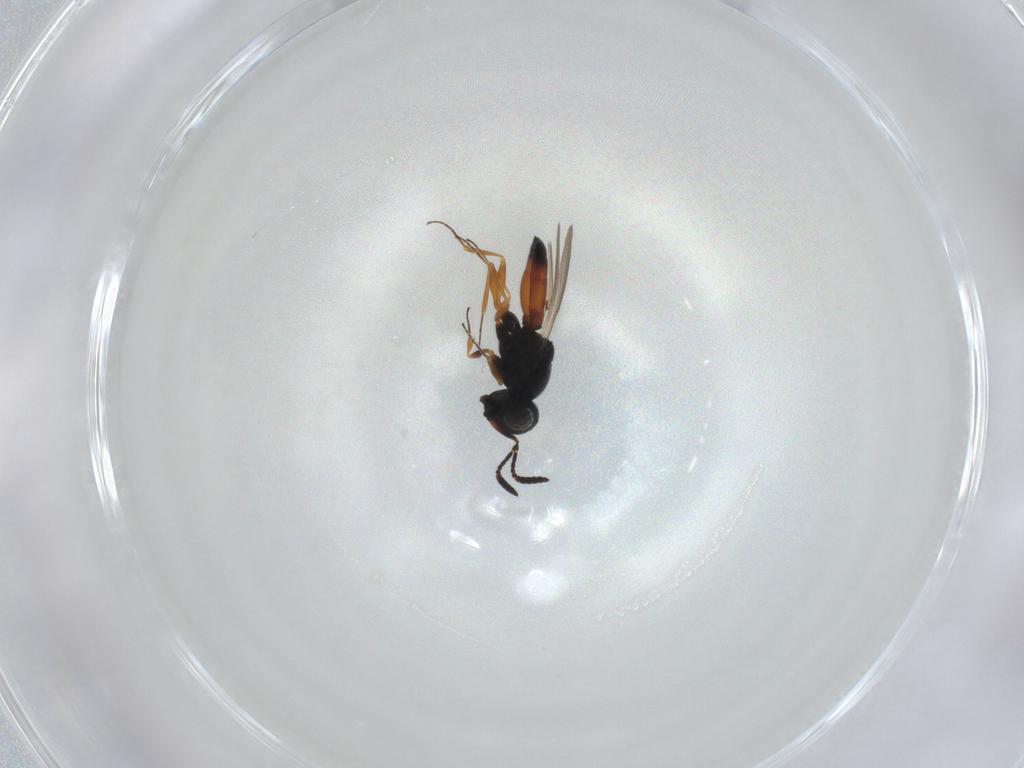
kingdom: Animalia
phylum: Arthropoda
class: Insecta
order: Hymenoptera
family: Scelionidae
